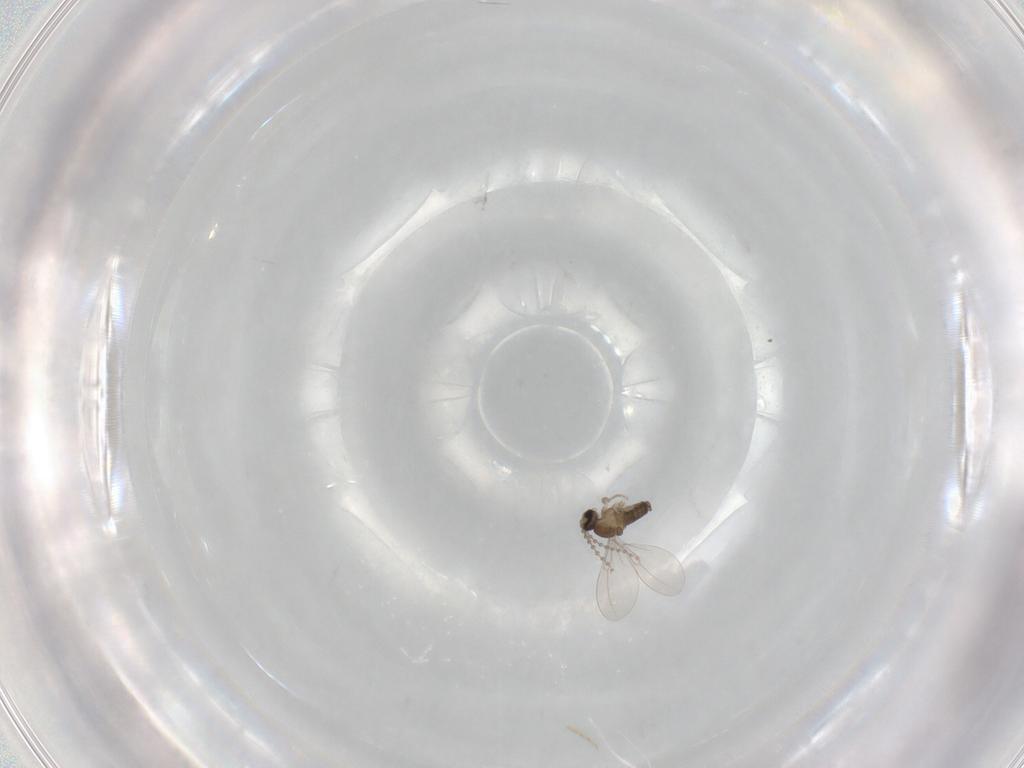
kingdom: Animalia
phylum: Arthropoda
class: Insecta
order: Diptera
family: Cecidomyiidae
